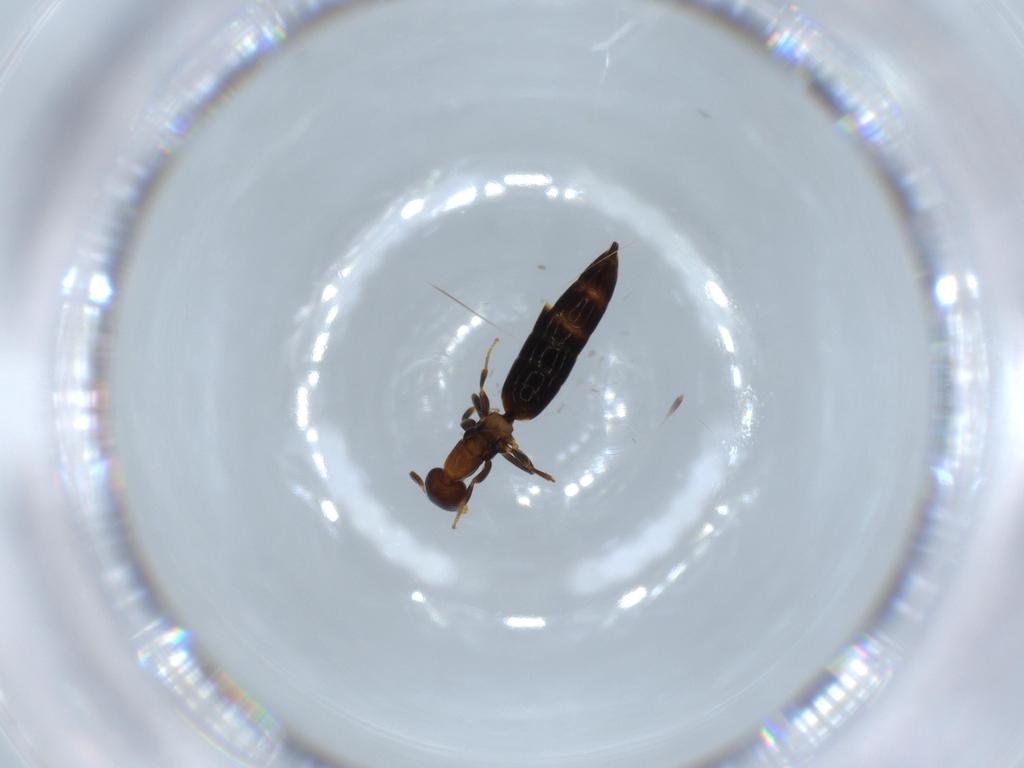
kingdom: Animalia
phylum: Arthropoda
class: Insecta
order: Hymenoptera
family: Bethylidae
